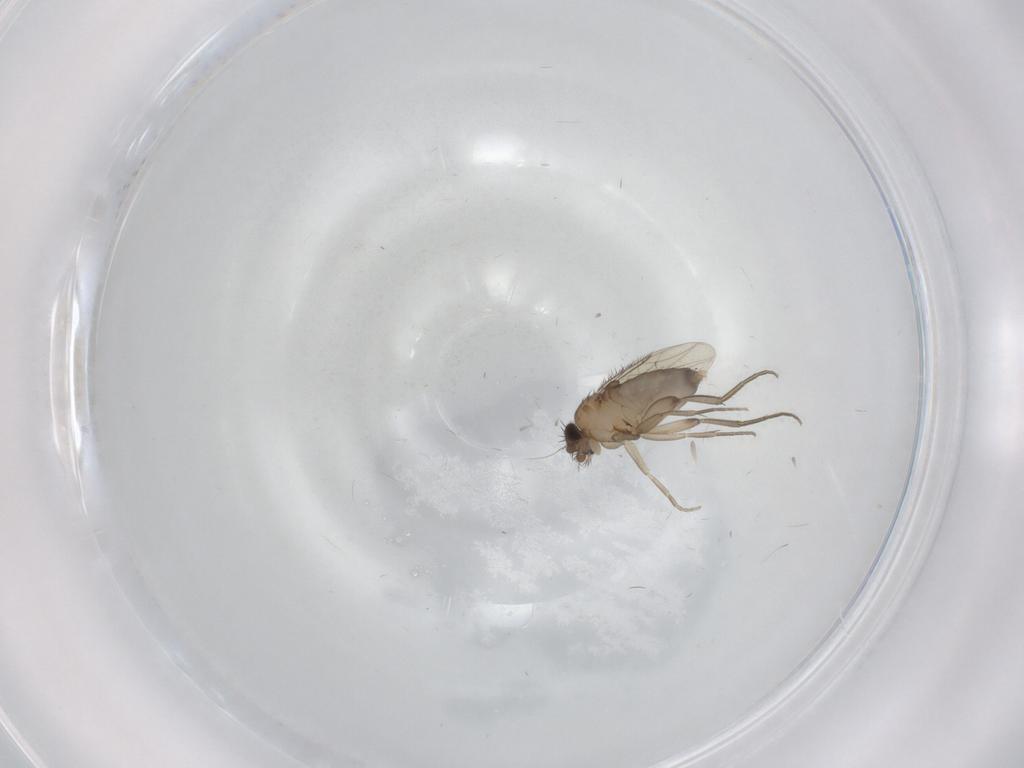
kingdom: Animalia
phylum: Arthropoda
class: Insecta
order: Diptera
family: Phoridae
